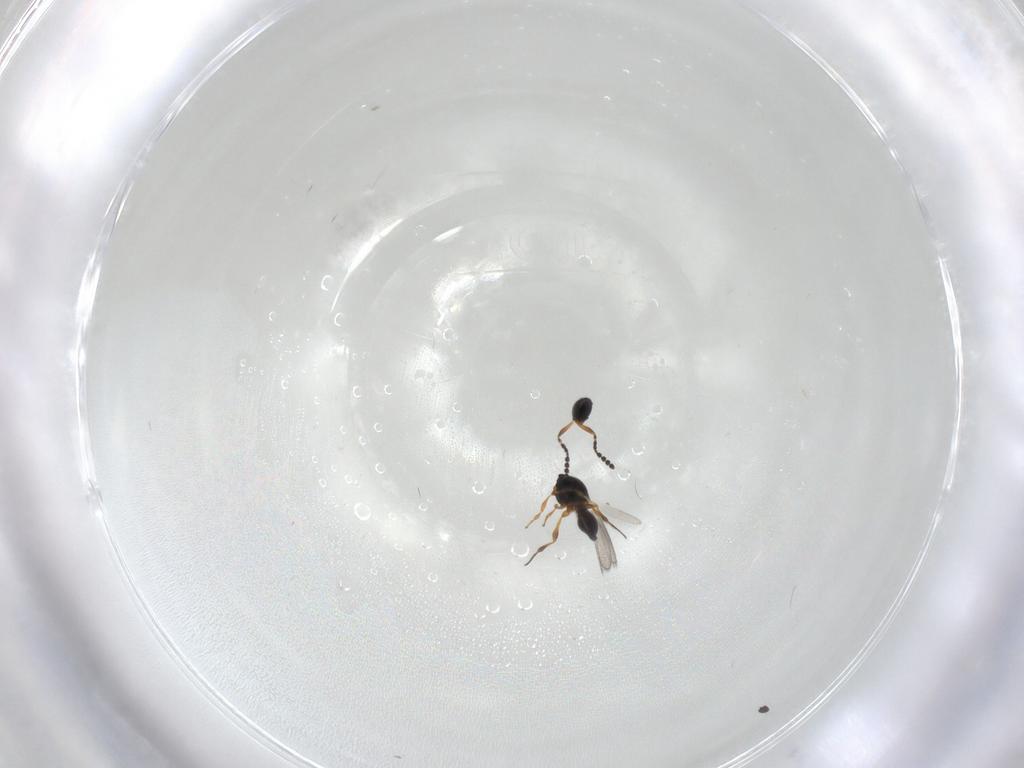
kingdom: Animalia
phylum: Arthropoda
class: Insecta
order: Hymenoptera
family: Platygastridae
